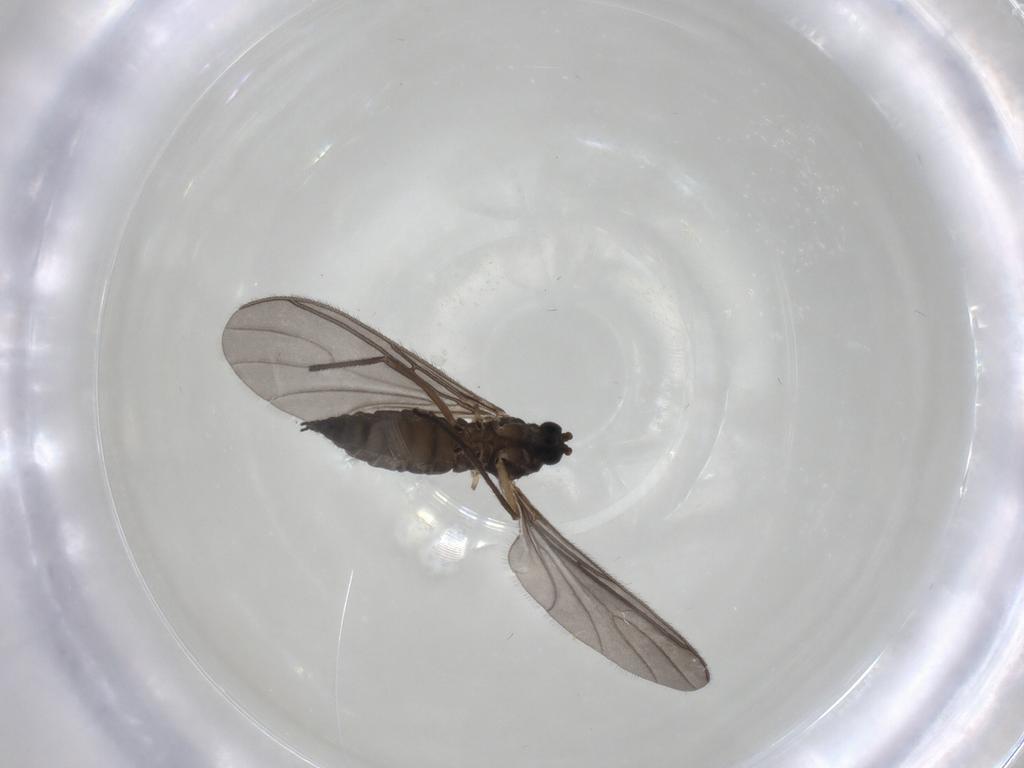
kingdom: Animalia
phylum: Arthropoda
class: Insecta
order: Diptera
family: Sciaridae
